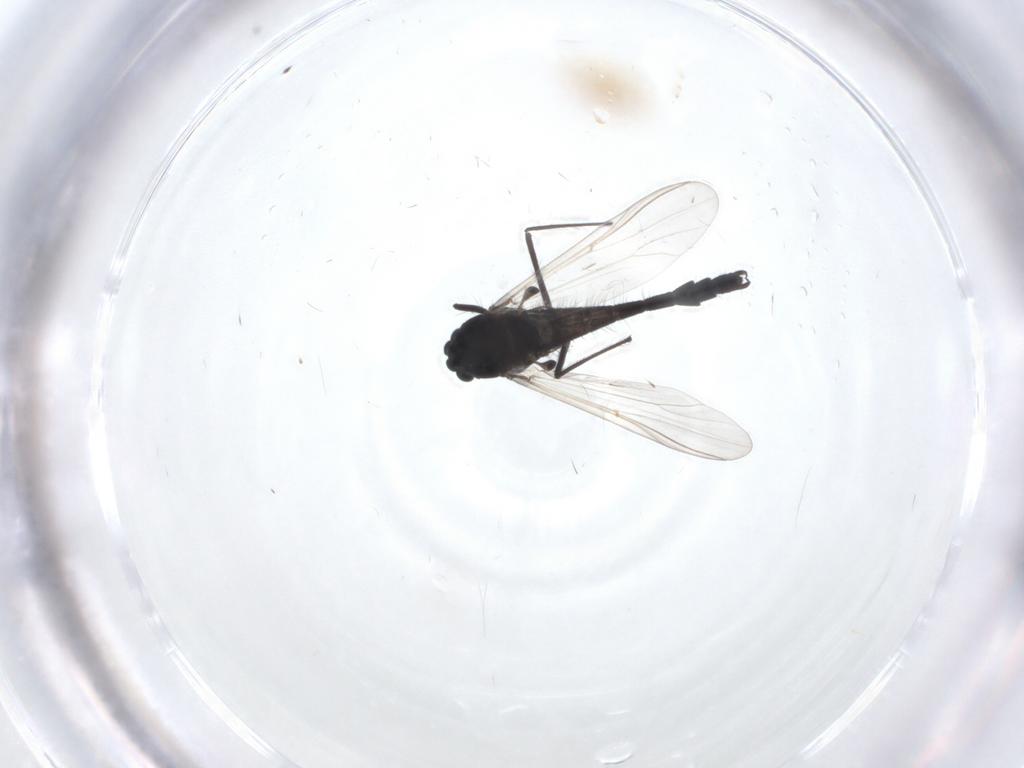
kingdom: Animalia
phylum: Arthropoda
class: Insecta
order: Diptera
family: Chironomidae
